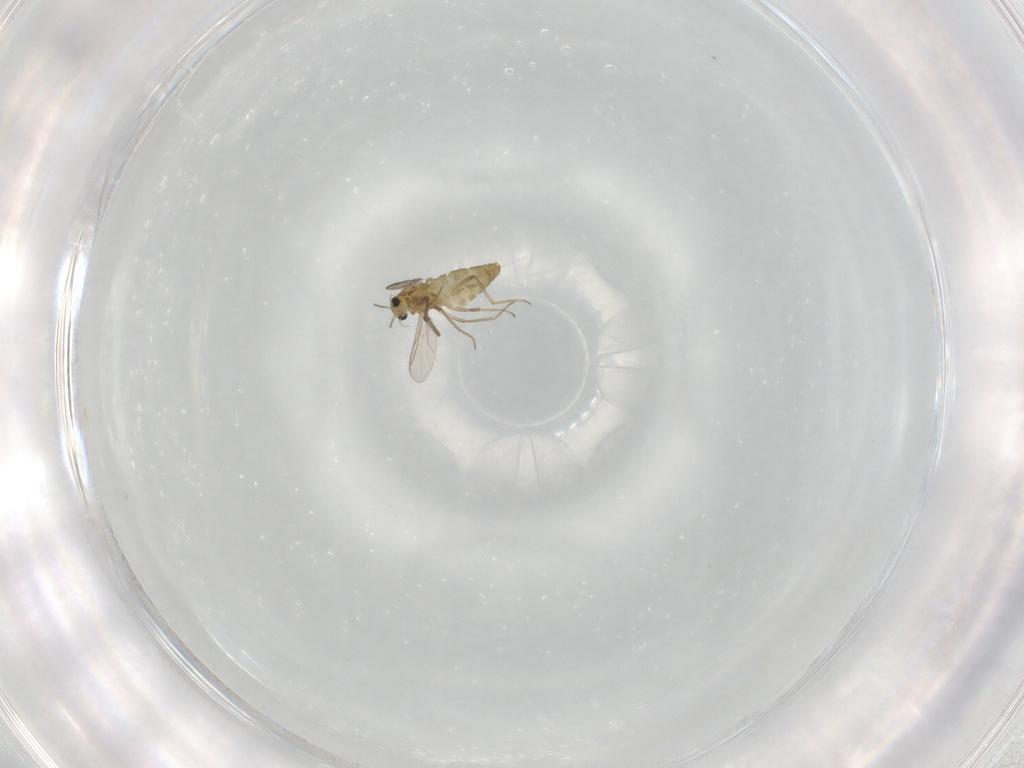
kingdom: Animalia
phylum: Arthropoda
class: Insecta
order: Diptera
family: Chironomidae
